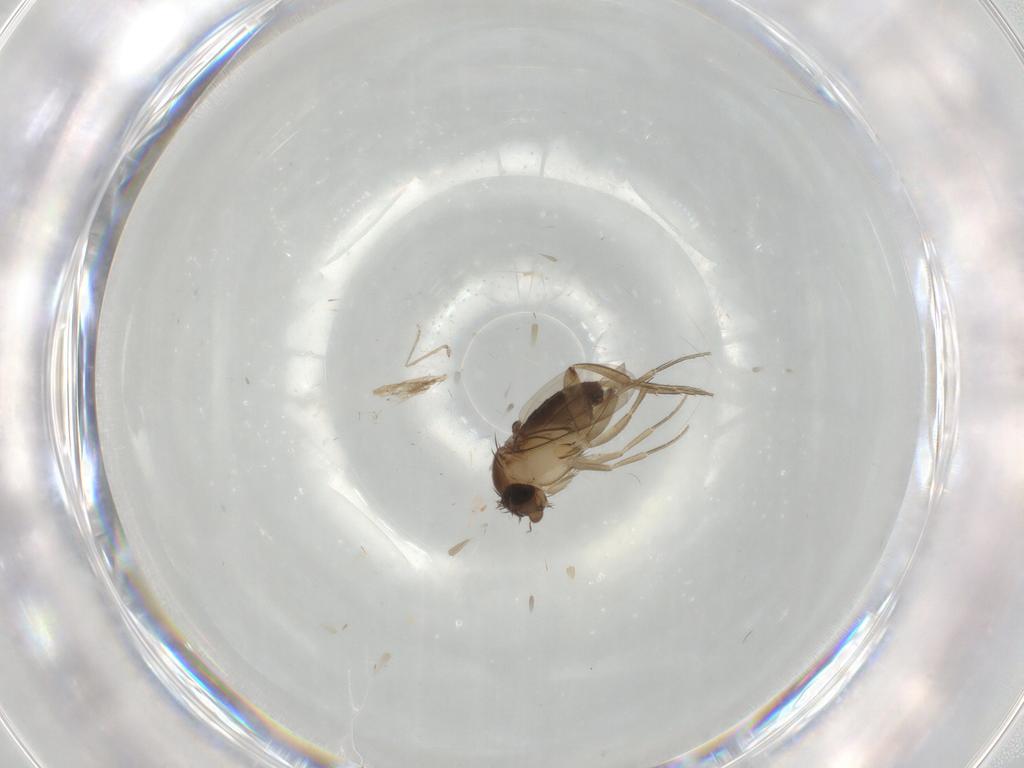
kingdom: Animalia
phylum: Arthropoda
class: Insecta
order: Diptera
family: Phoridae
